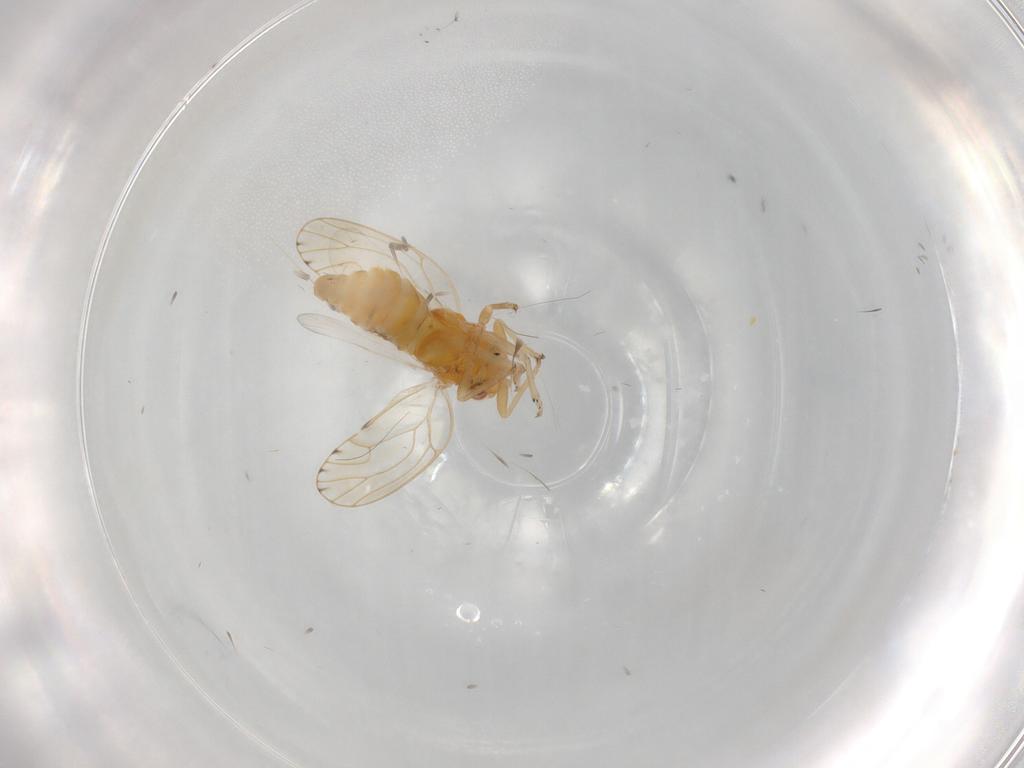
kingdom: Animalia
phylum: Arthropoda
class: Insecta
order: Hemiptera
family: Psylloidea_incertae_sedis
